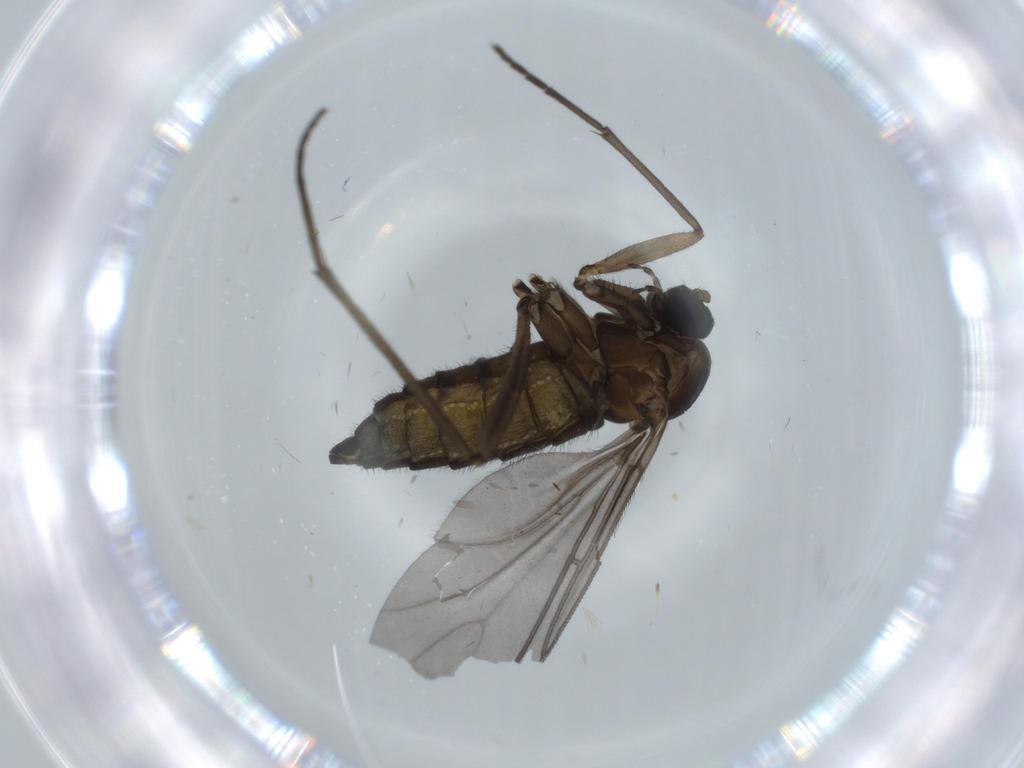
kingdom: Animalia
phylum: Arthropoda
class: Insecta
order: Diptera
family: Sciaridae
